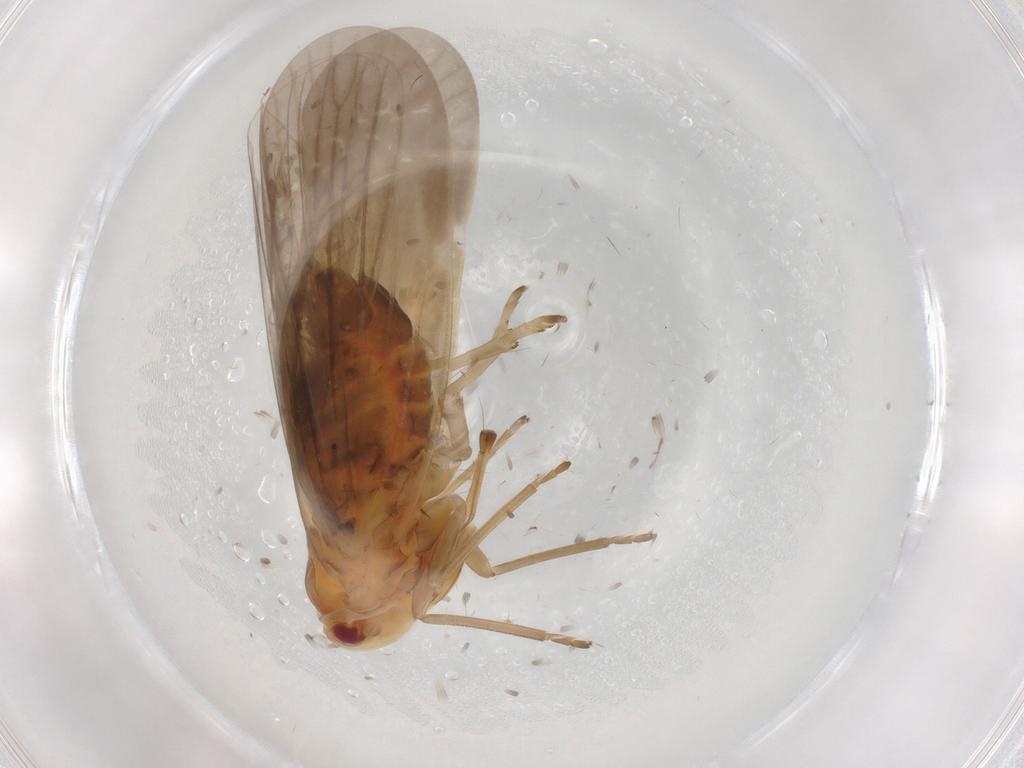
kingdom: Animalia
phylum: Arthropoda
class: Insecta
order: Hemiptera
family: Derbidae
